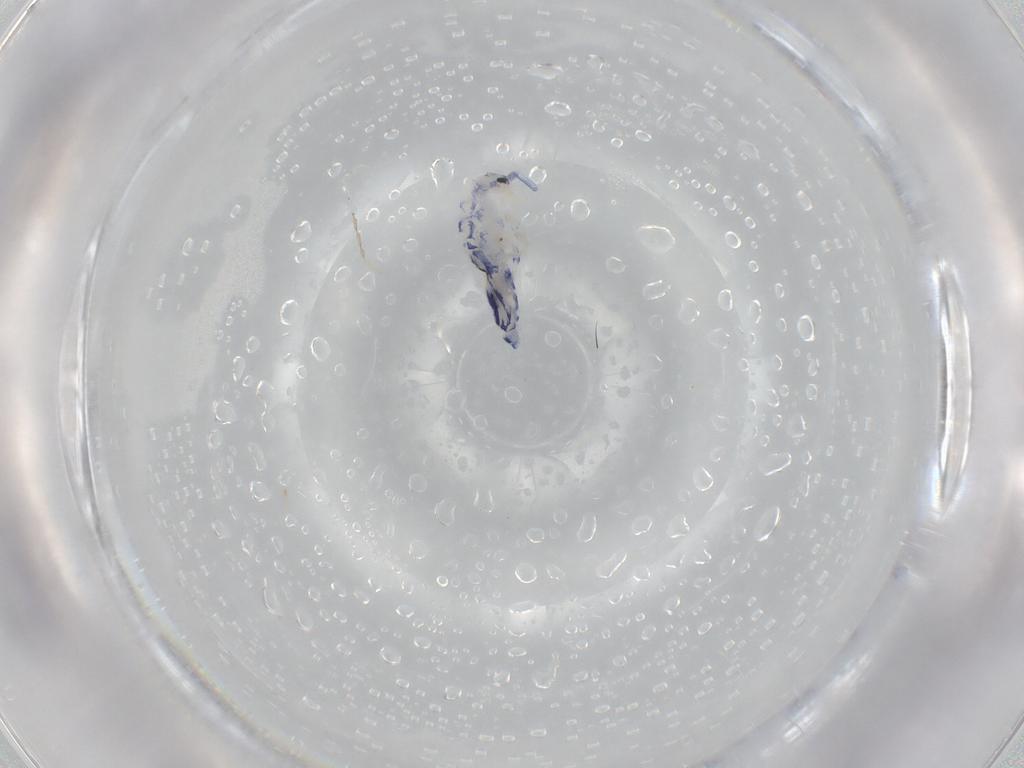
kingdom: Animalia
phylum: Arthropoda
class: Collembola
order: Entomobryomorpha
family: Entomobryidae
